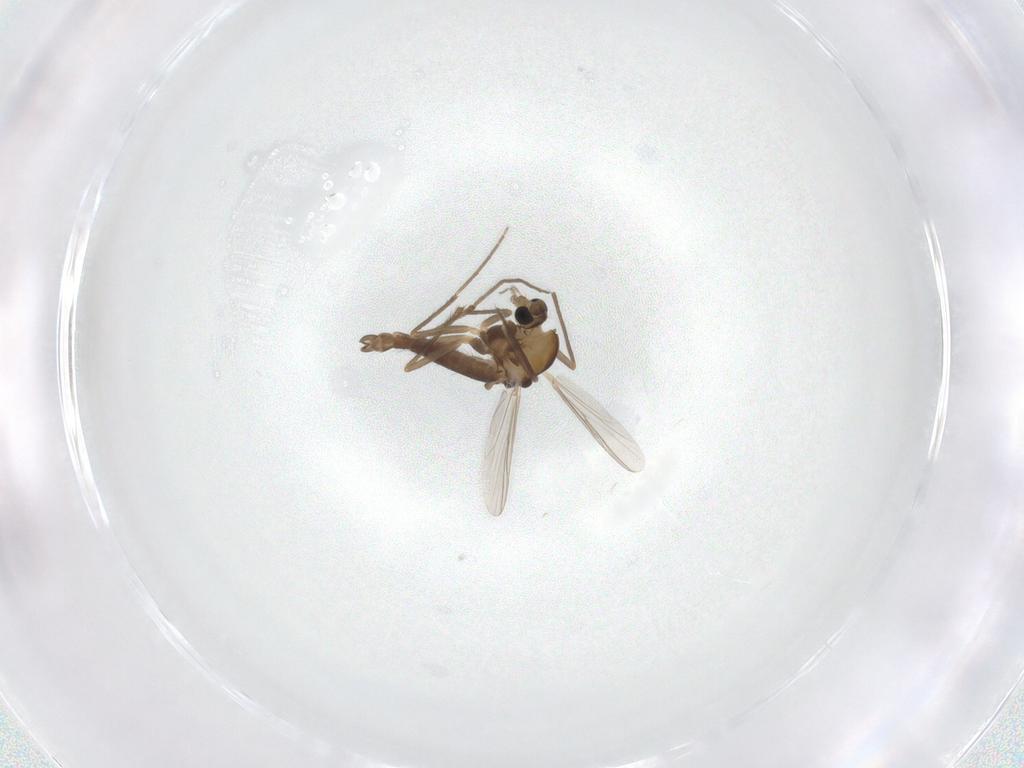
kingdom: Animalia
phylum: Arthropoda
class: Insecta
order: Diptera
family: Chironomidae
